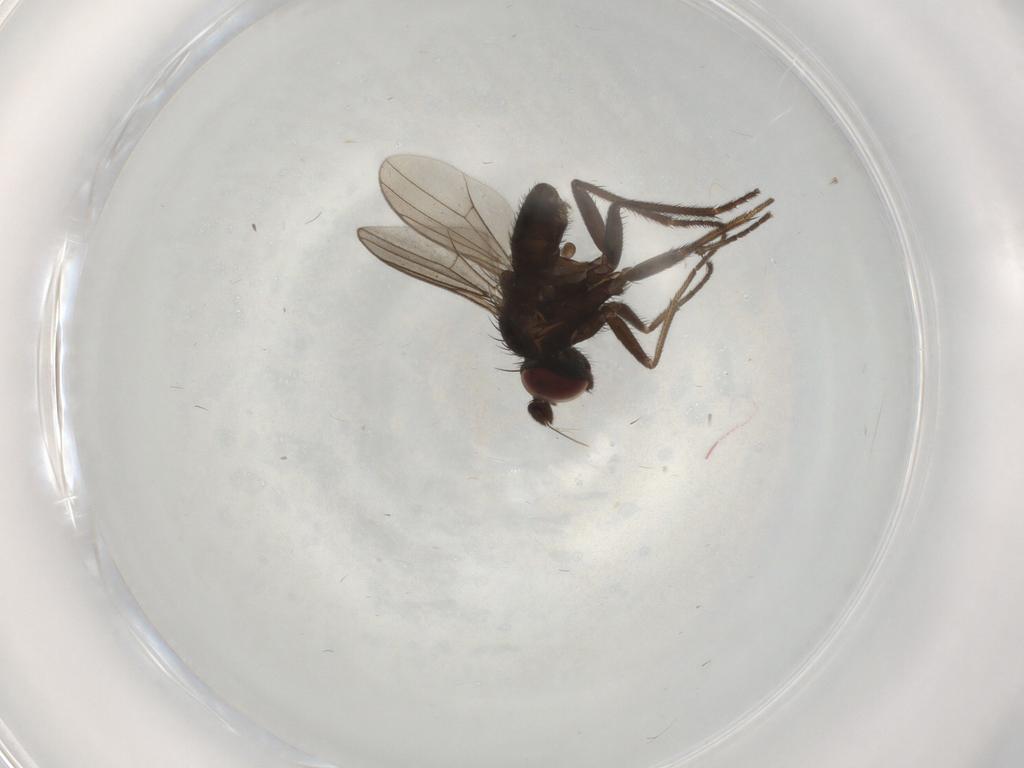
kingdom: Animalia
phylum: Arthropoda
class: Insecta
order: Diptera
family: Dolichopodidae
